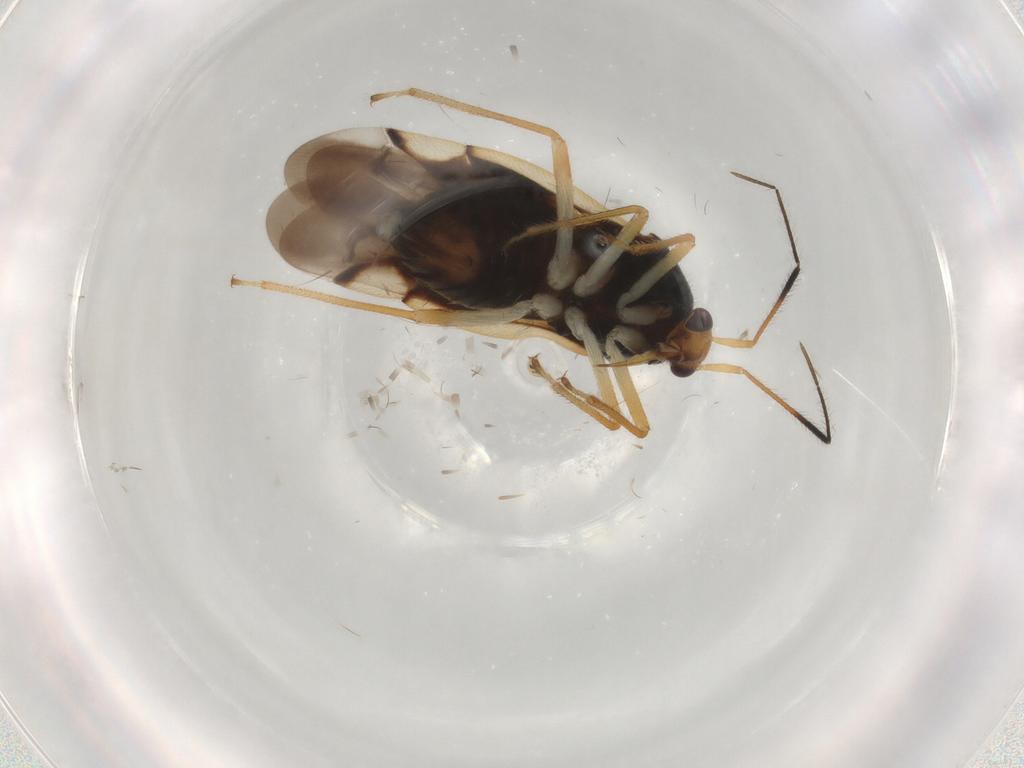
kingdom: Animalia
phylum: Arthropoda
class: Insecta
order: Hemiptera
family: Miridae
